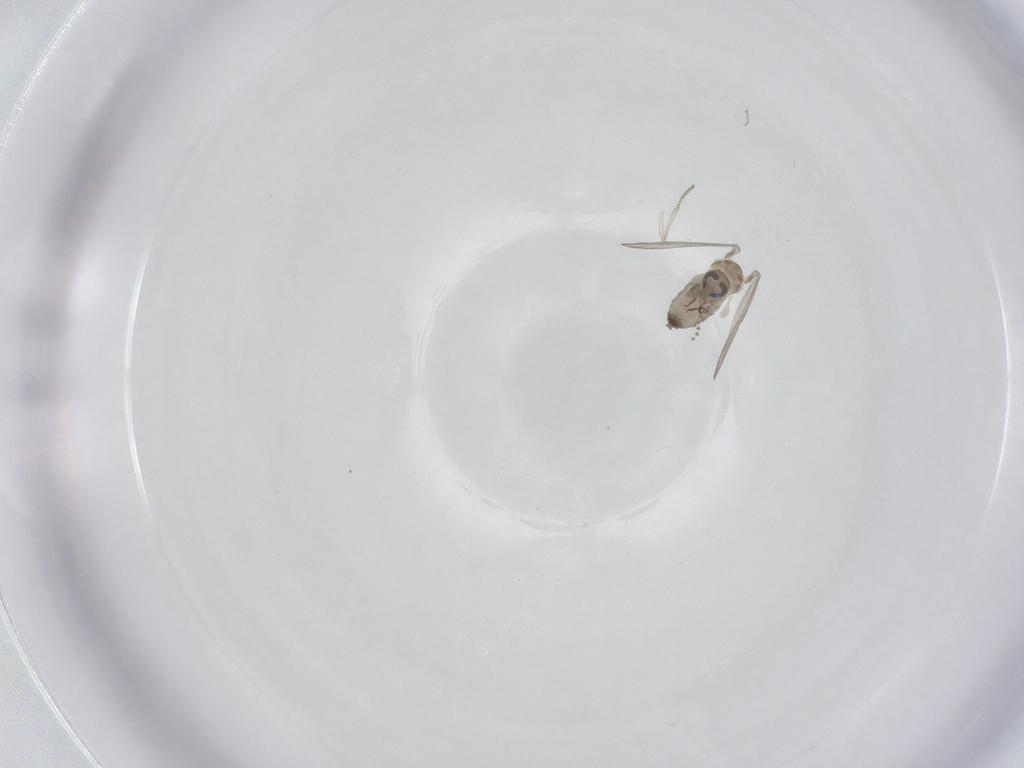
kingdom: Animalia
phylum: Arthropoda
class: Insecta
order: Diptera
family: Psychodidae
